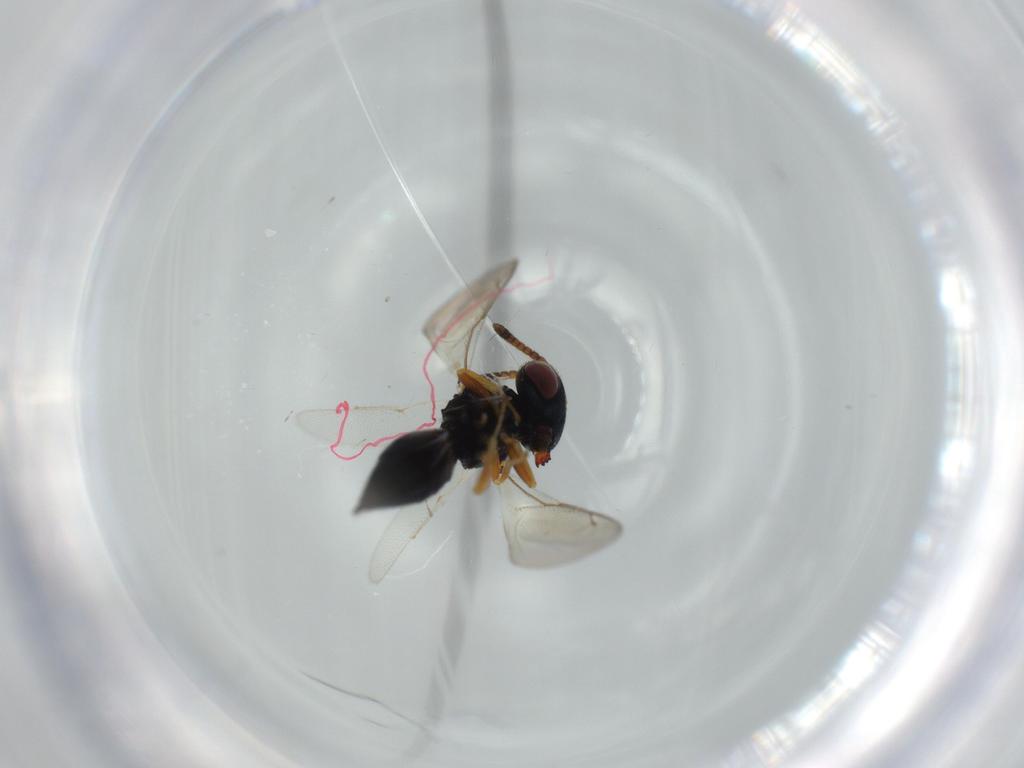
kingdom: Animalia
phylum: Arthropoda
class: Insecta
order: Hymenoptera
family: Pteromalidae
